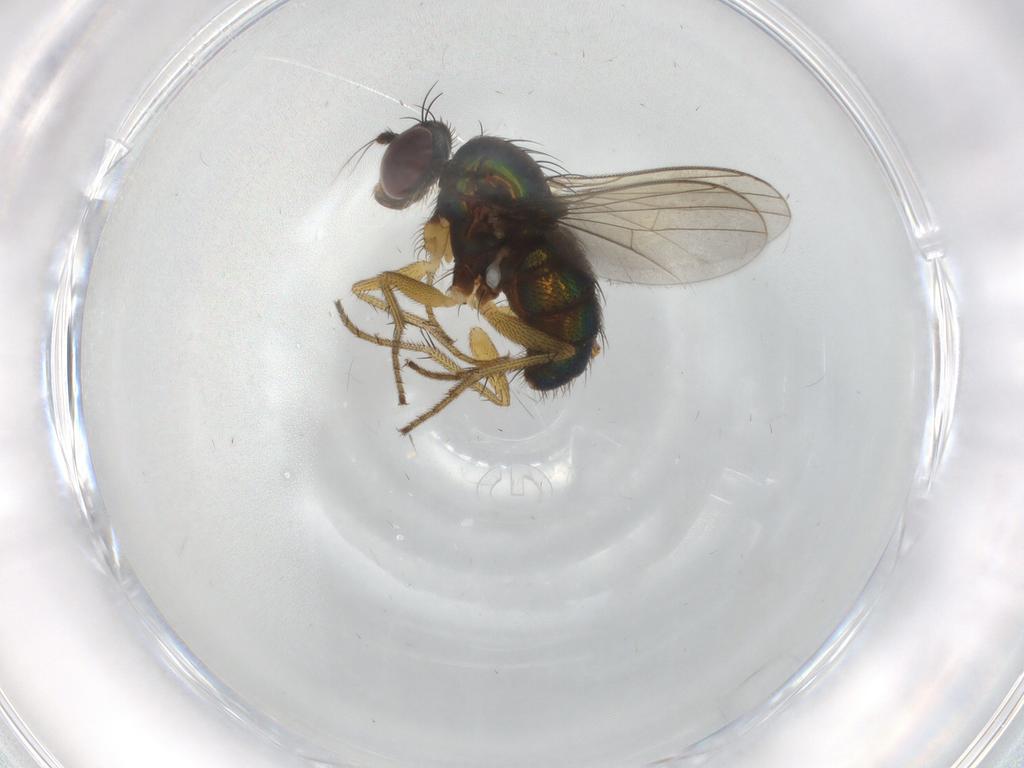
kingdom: Animalia
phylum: Arthropoda
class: Insecta
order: Diptera
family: Dolichopodidae
